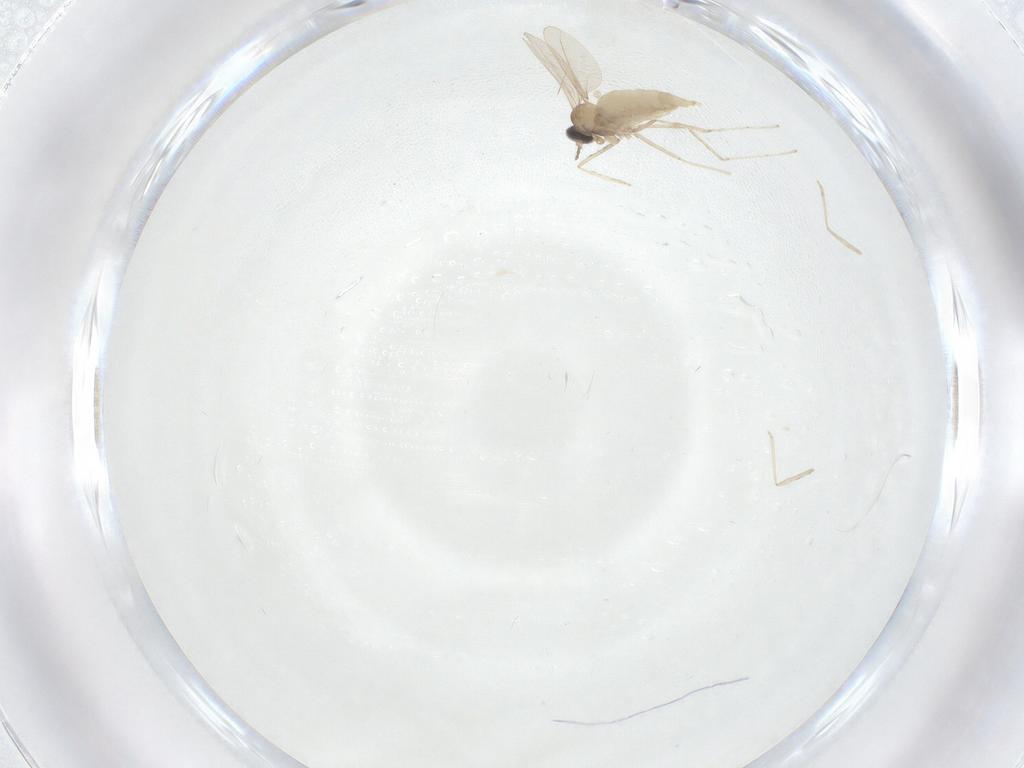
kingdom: Animalia
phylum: Arthropoda
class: Insecta
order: Diptera
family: Cecidomyiidae
